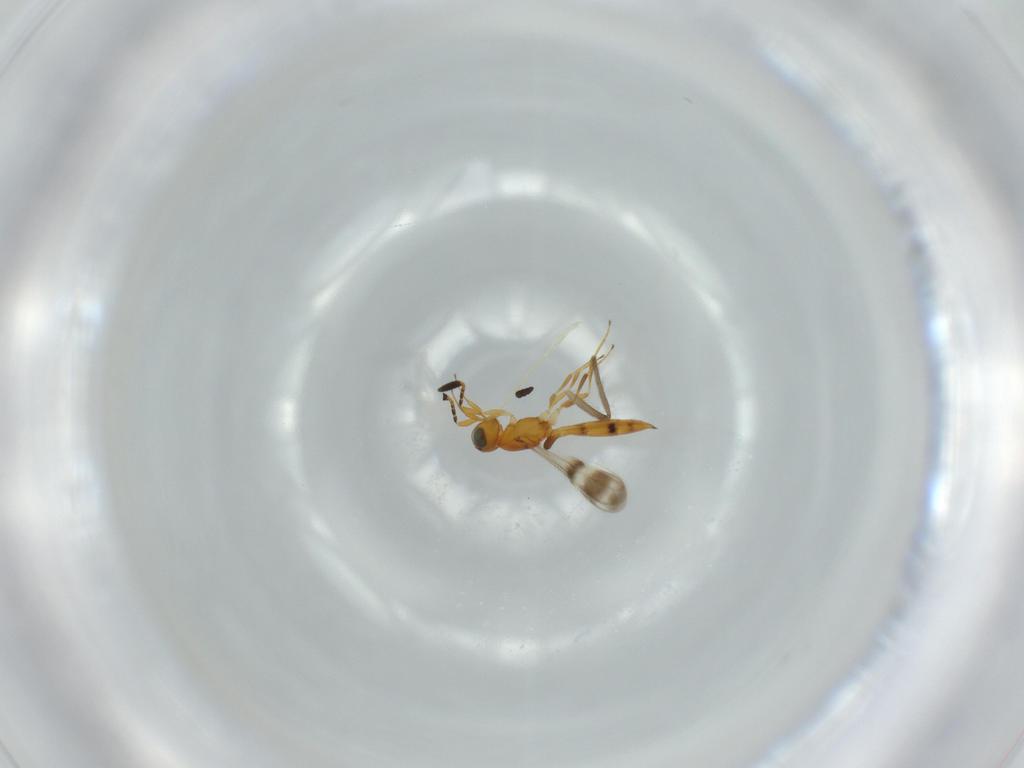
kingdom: Animalia
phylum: Arthropoda
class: Insecta
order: Hymenoptera
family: Scelionidae
